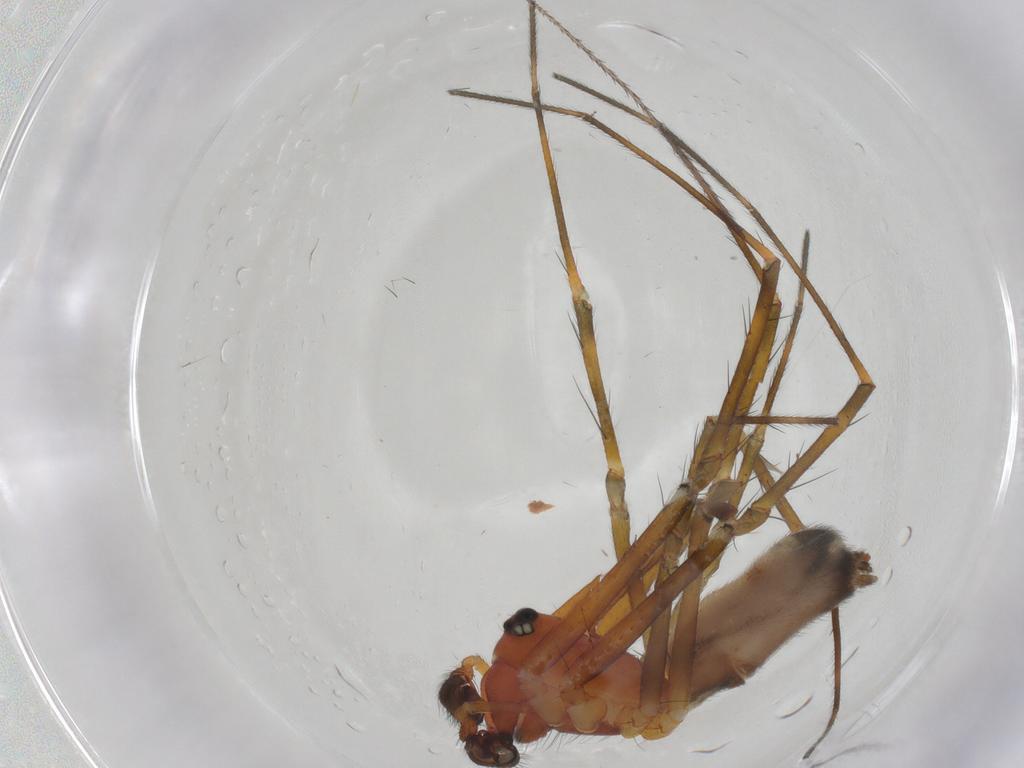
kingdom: Animalia
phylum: Arthropoda
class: Arachnida
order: Araneae
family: Linyphiidae
